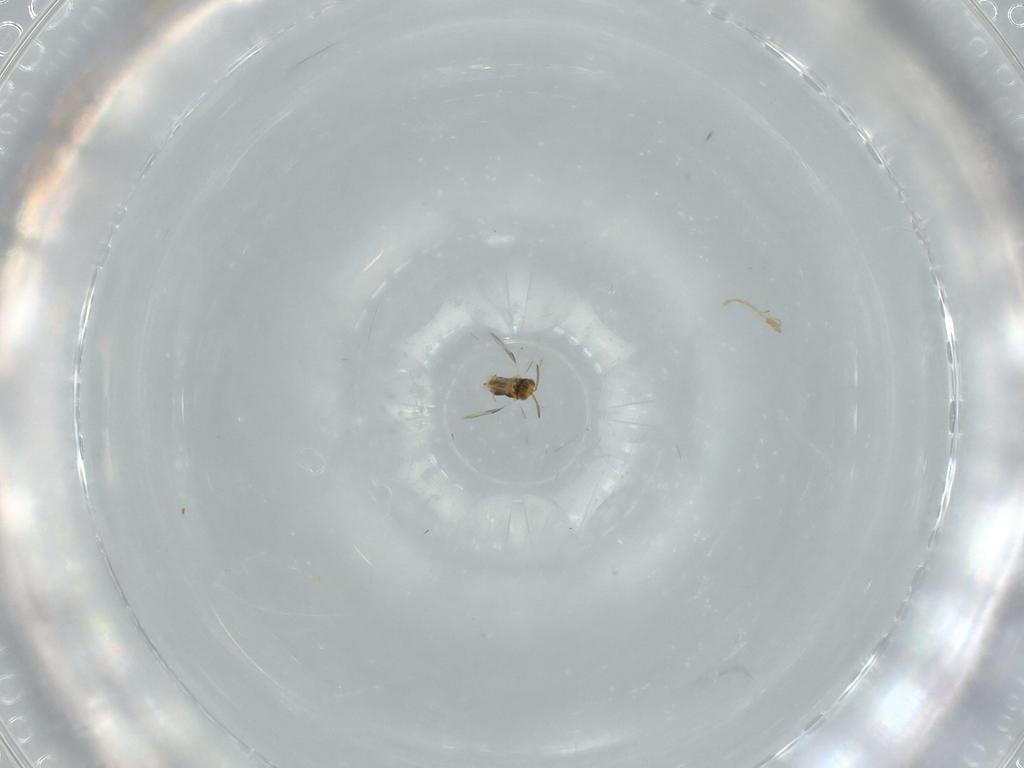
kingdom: Animalia
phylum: Arthropoda
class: Insecta
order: Hymenoptera
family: Aphelinidae
